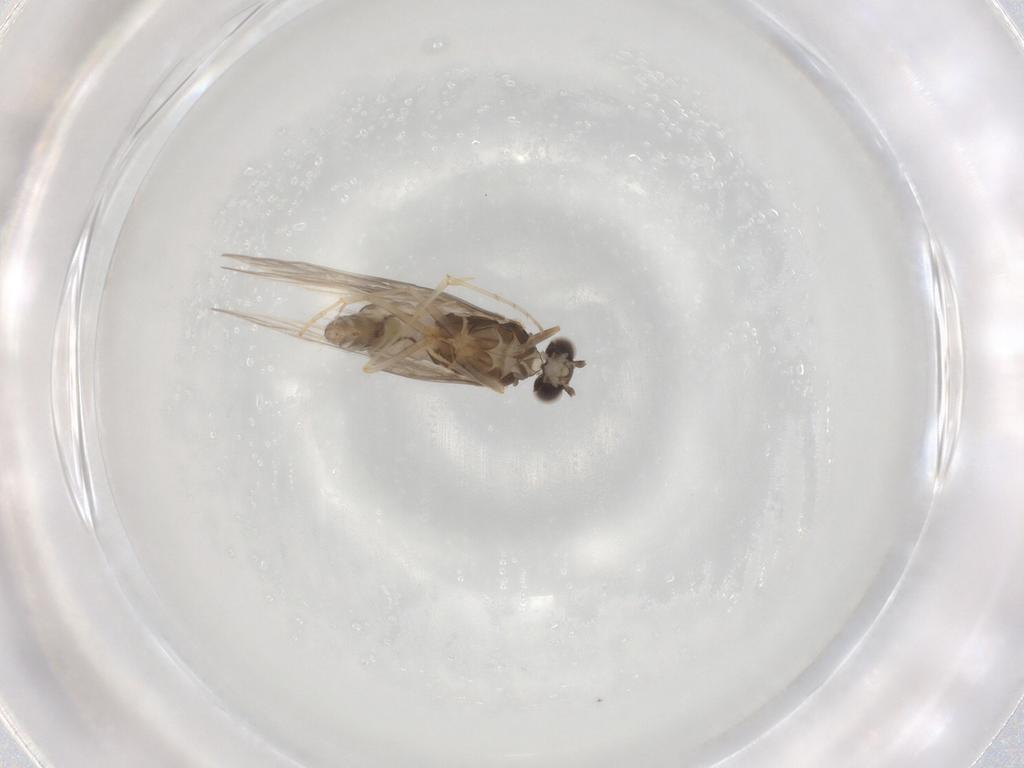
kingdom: Animalia
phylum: Arthropoda
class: Insecta
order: Trichoptera
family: Hydroptilidae
